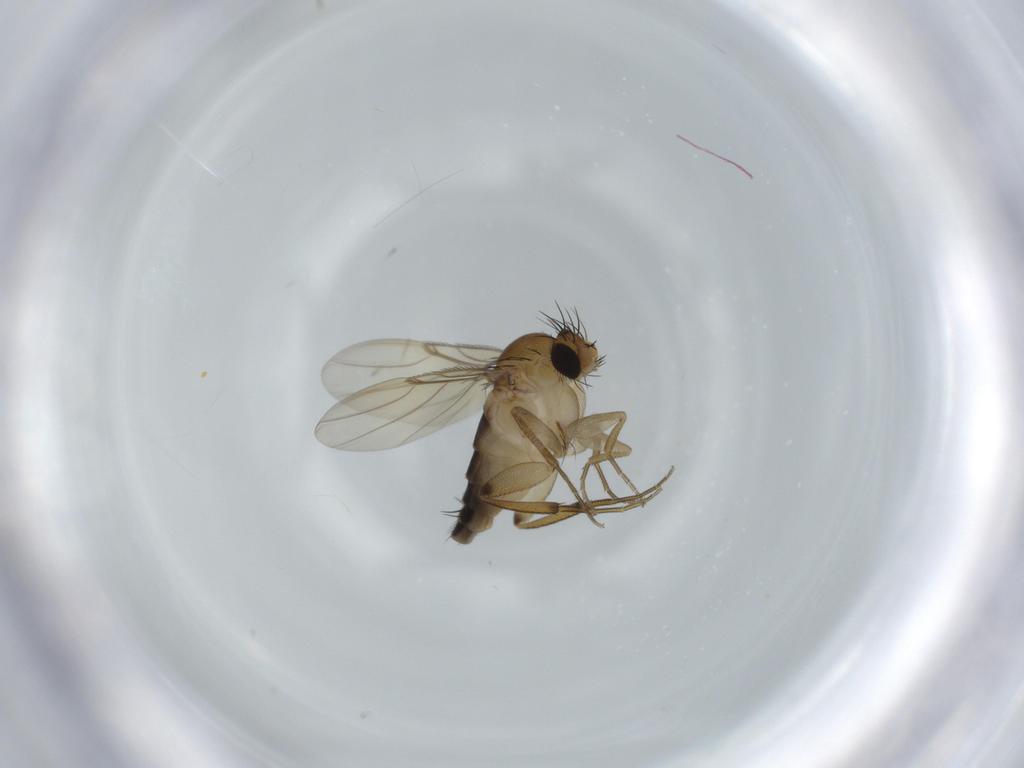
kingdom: Animalia
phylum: Arthropoda
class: Insecta
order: Diptera
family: Cecidomyiidae
